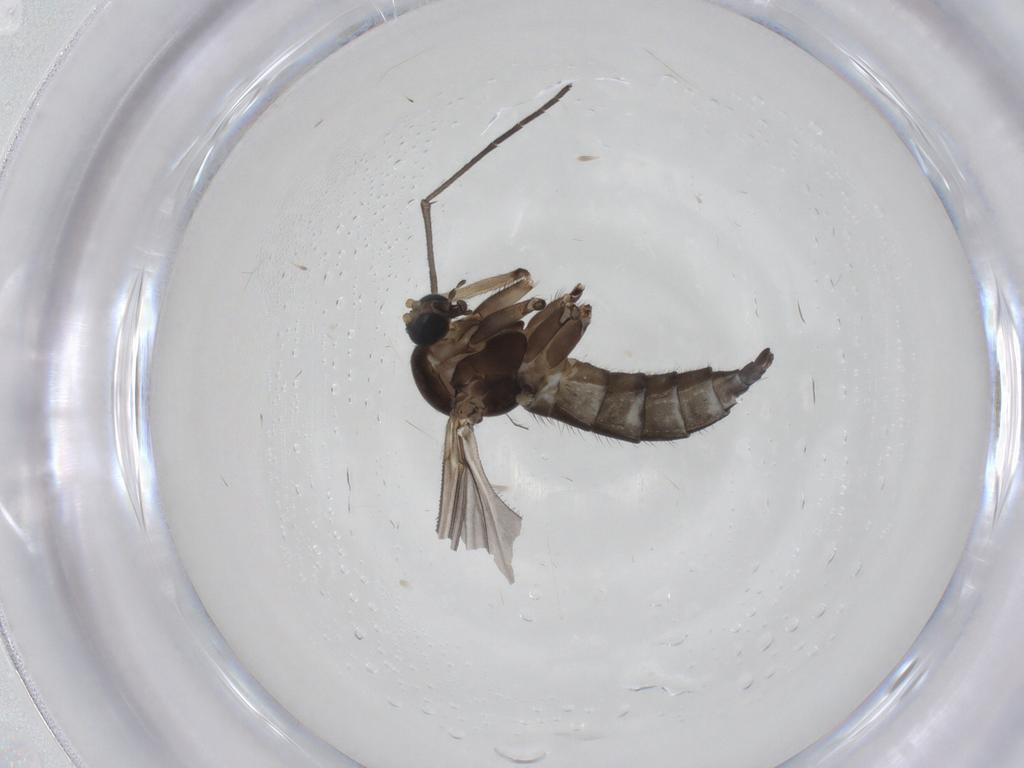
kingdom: Animalia
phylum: Arthropoda
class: Insecta
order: Diptera
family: Sciaridae
